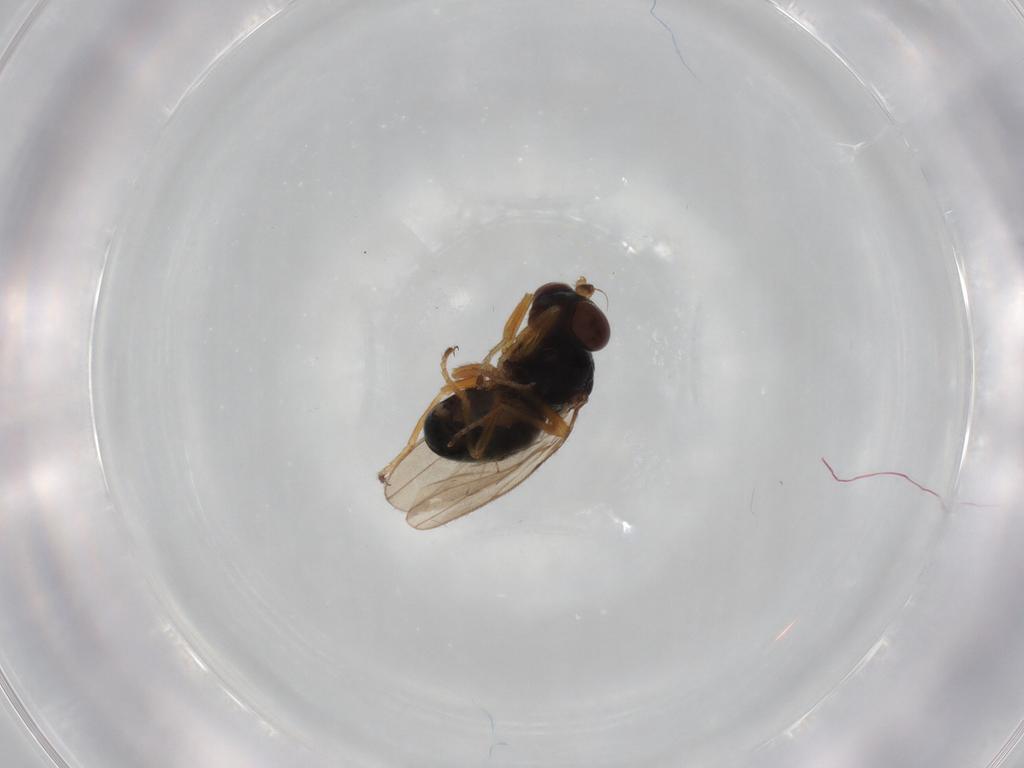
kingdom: Animalia
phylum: Arthropoda
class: Insecta
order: Diptera
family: Ephydridae
